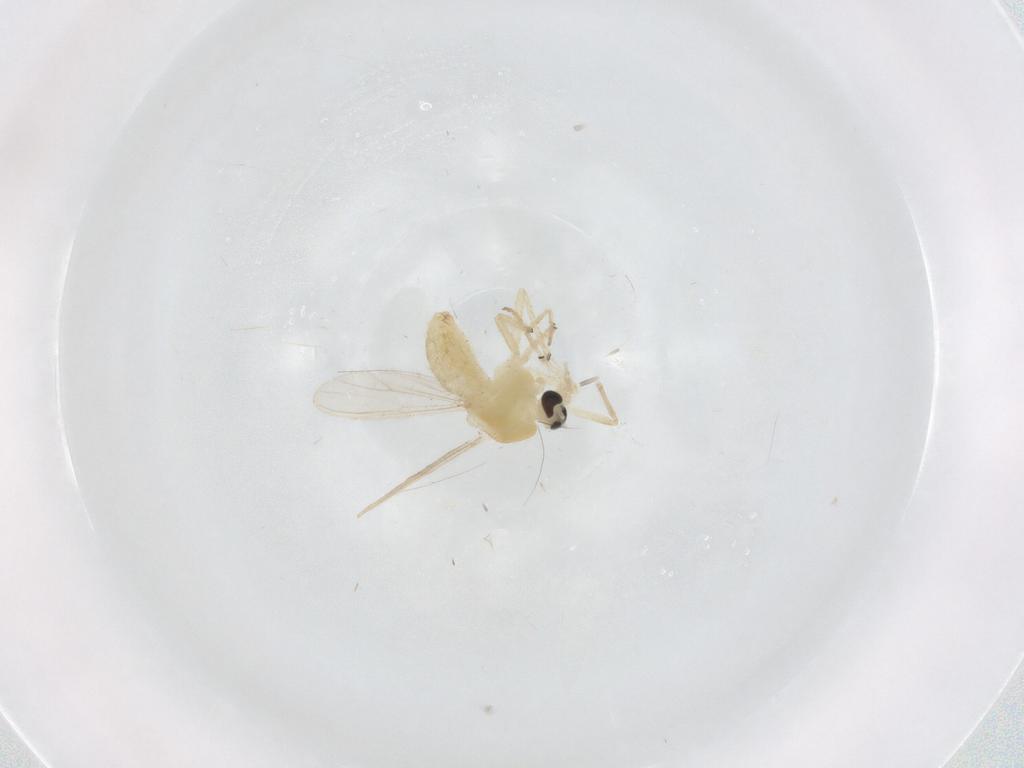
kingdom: Animalia
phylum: Arthropoda
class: Insecta
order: Diptera
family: Chironomidae
